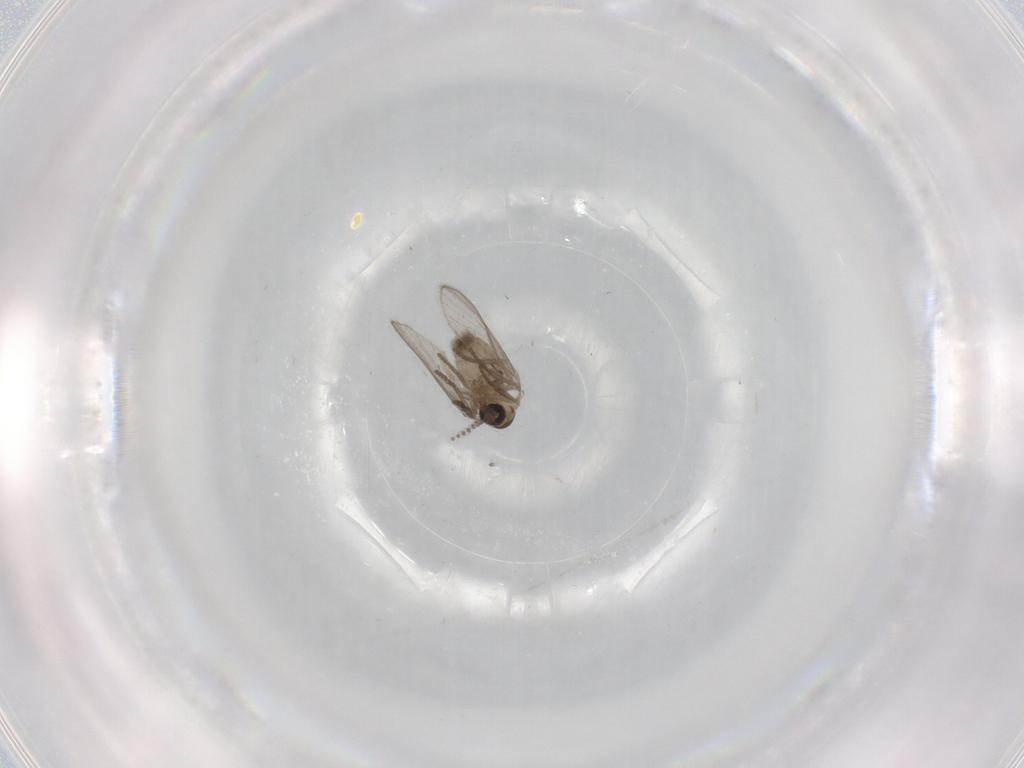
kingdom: Animalia
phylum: Arthropoda
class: Insecta
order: Diptera
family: Psychodidae
